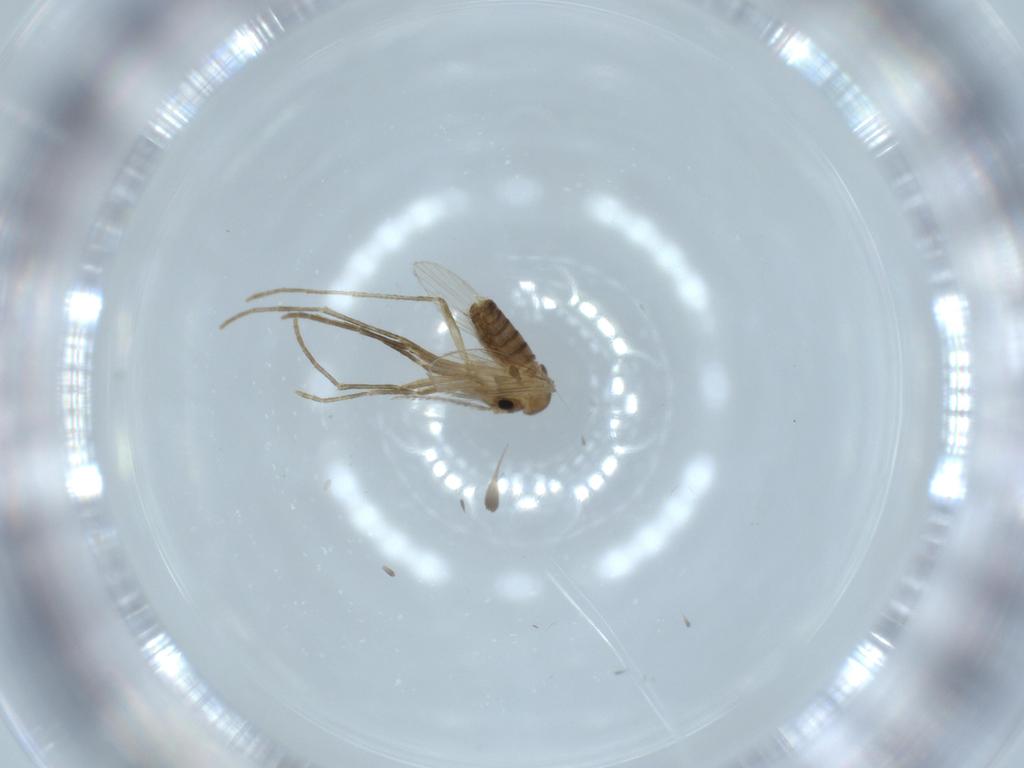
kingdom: Animalia
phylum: Arthropoda
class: Insecta
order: Diptera
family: Psychodidae
